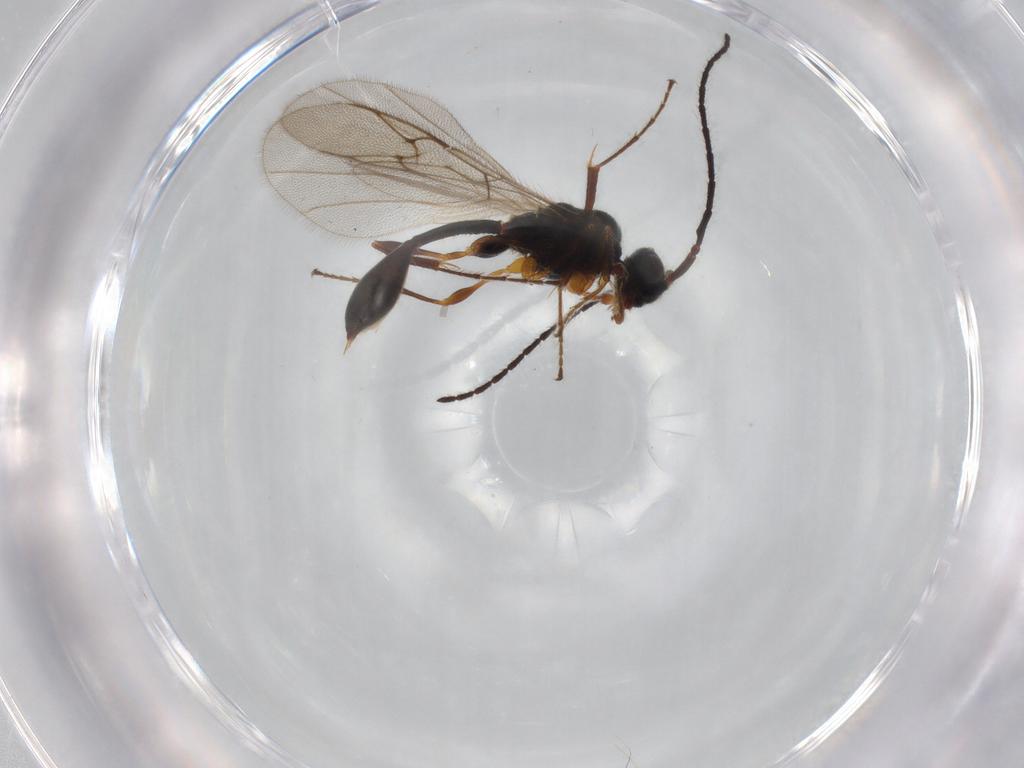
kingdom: Animalia
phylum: Arthropoda
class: Insecta
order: Hymenoptera
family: Diapriidae
